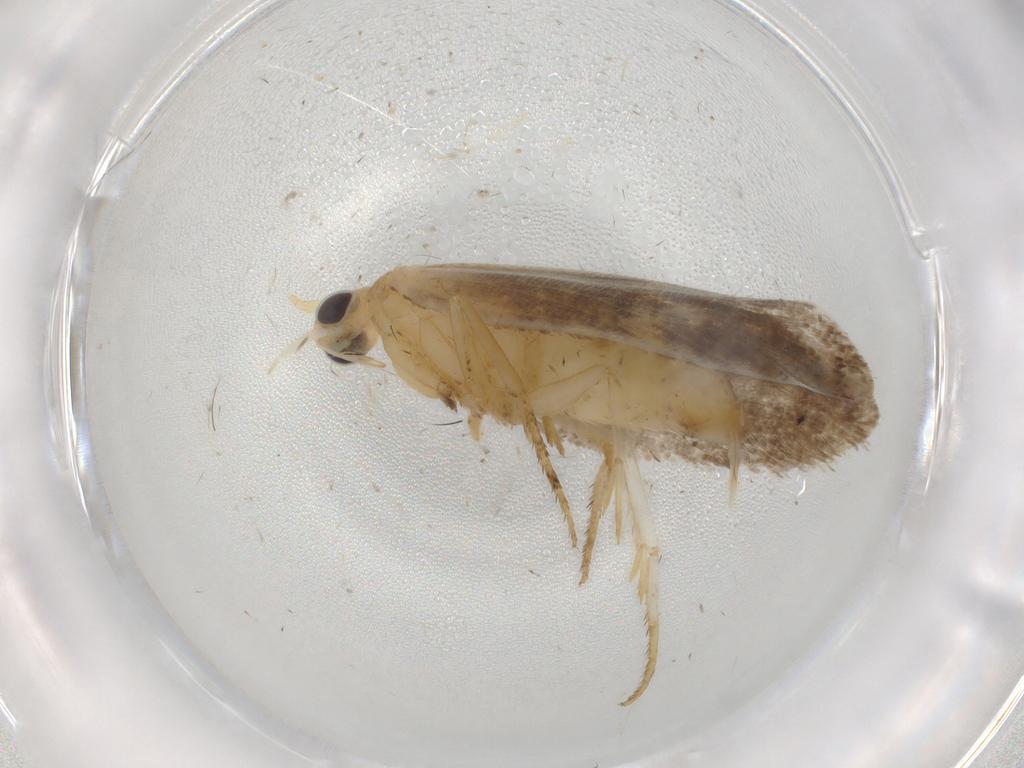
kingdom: Animalia
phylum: Arthropoda
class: Insecta
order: Lepidoptera
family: Ypsolophidae
